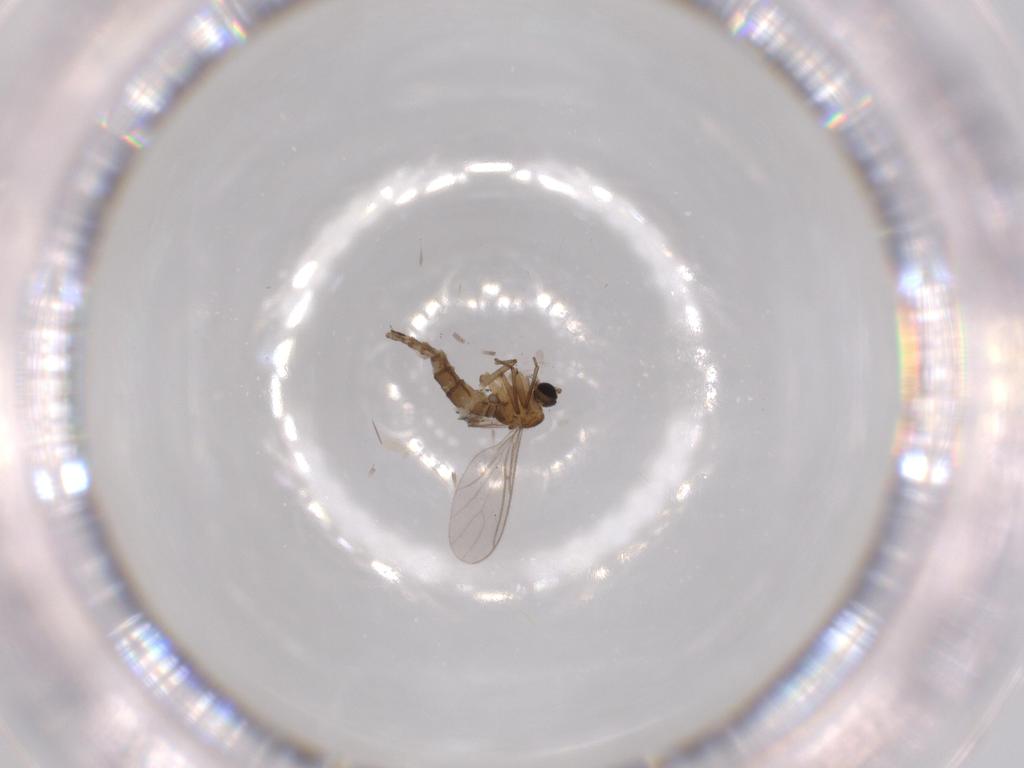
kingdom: Animalia
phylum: Arthropoda
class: Insecta
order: Diptera
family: Sciaridae
